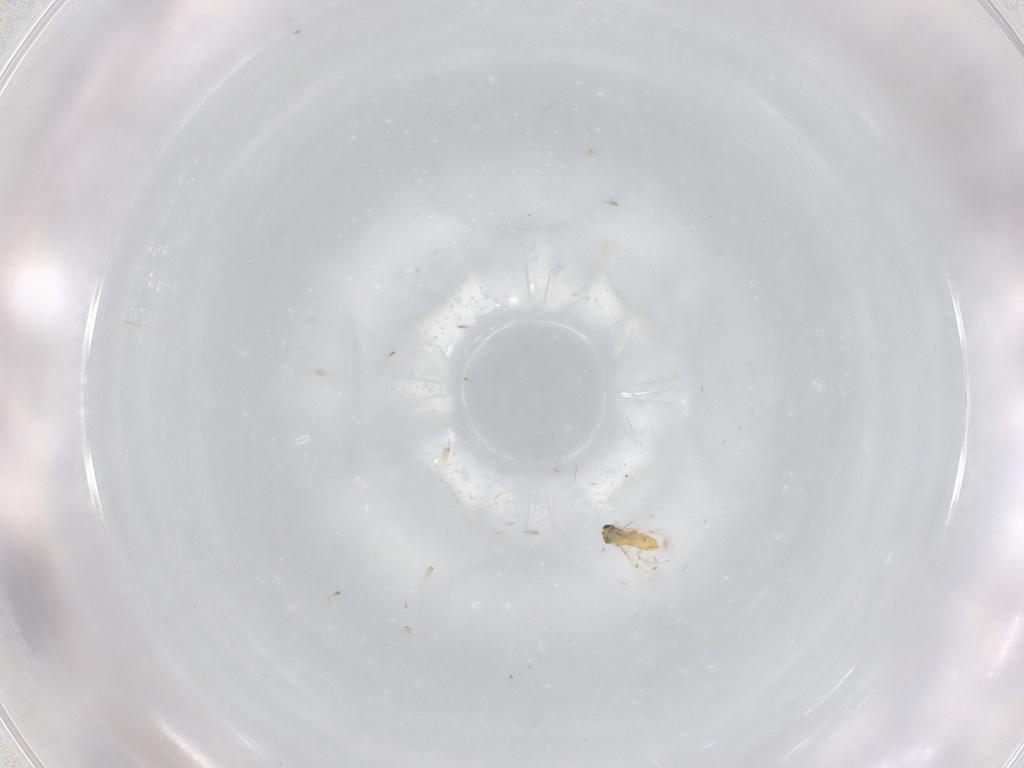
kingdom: Animalia
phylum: Arthropoda
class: Insecta
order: Hymenoptera
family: Trichogrammatidae
